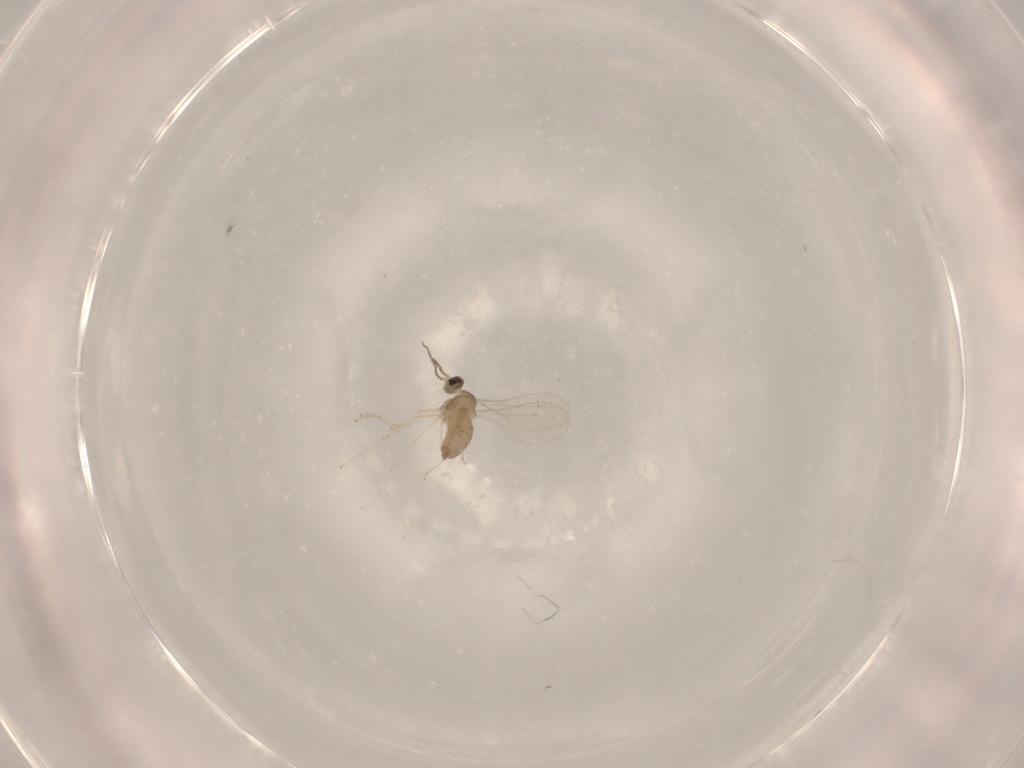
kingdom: Animalia
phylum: Arthropoda
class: Insecta
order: Diptera
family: Cecidomyiidae
